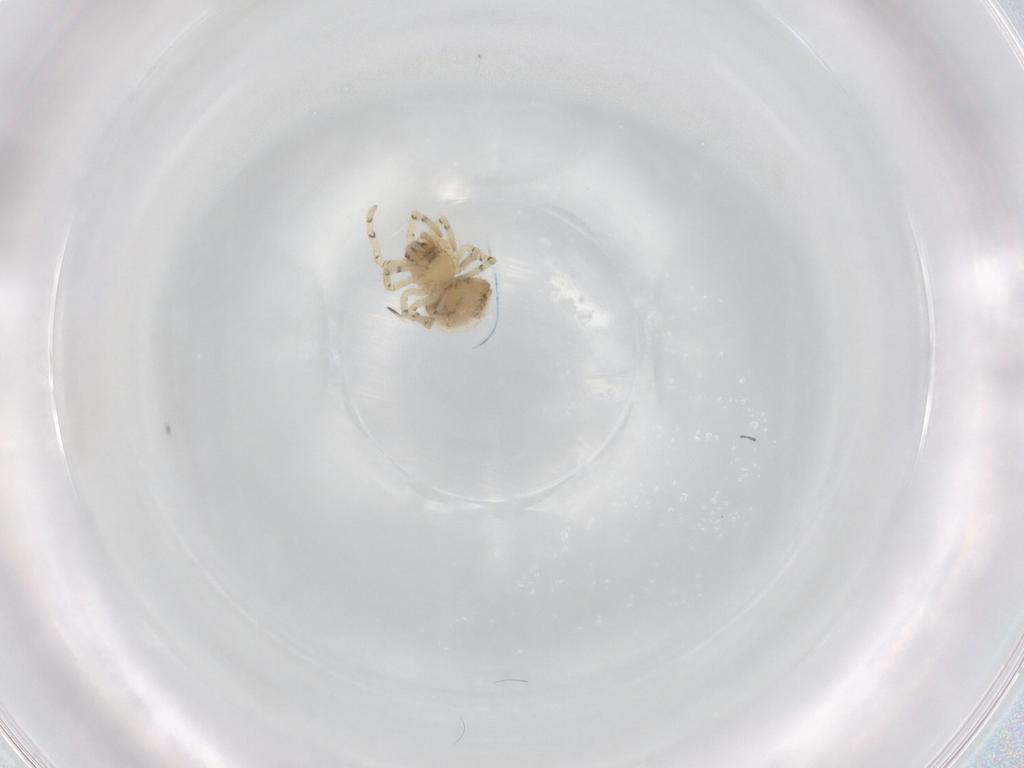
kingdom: Animalia
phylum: Arthropoda
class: Arachnida
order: Araneae
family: Theridiidae
